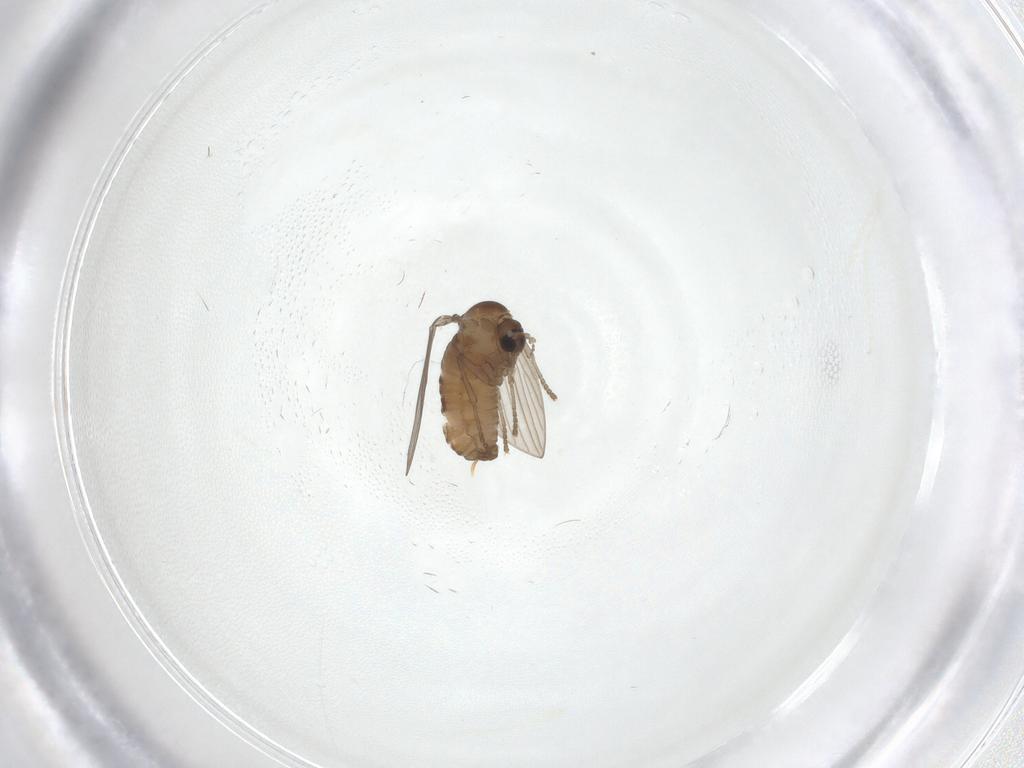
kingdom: Animalia
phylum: Arthropoda
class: Insecta
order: Diptera
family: Psychodidae
